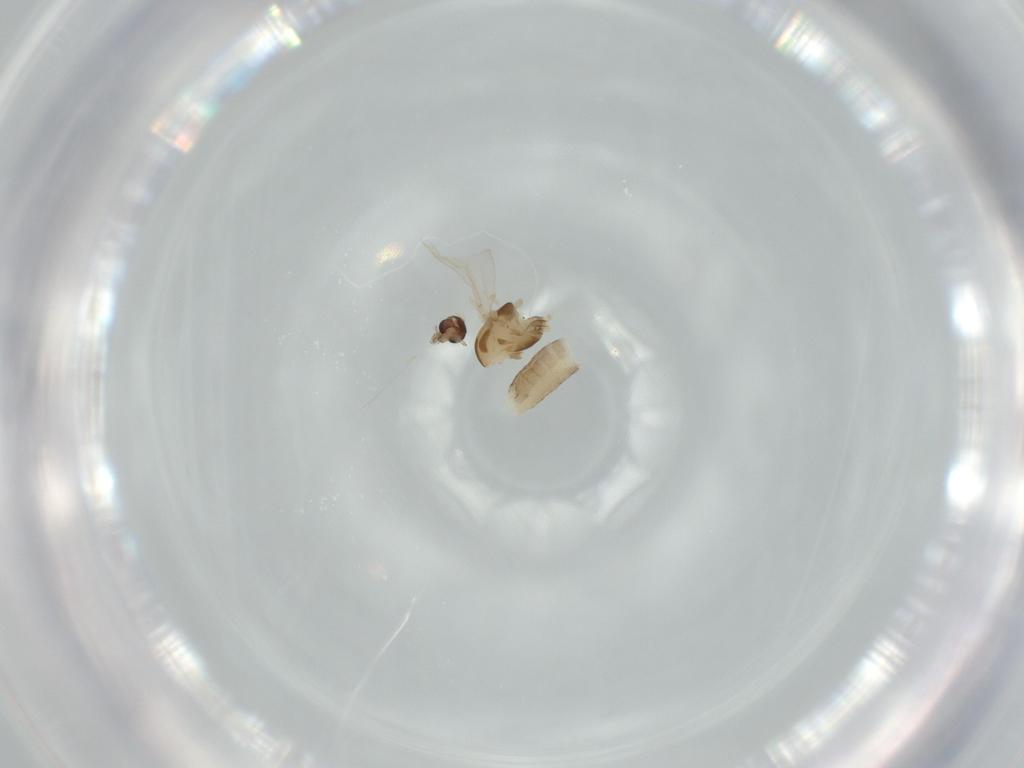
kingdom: Animalia
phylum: Arthropoda
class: Insecta
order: Diptera
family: Chironomidae
